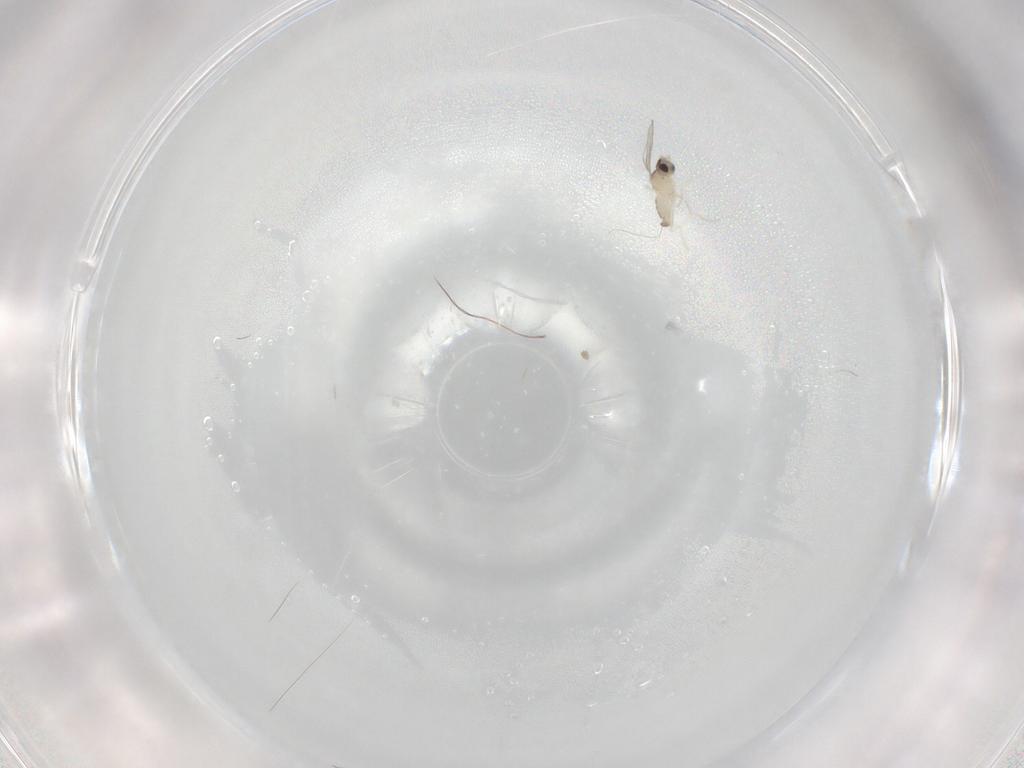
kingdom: Animalia
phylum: Arthropoda
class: Insecta
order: Diptera
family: Cecidomyiidae
